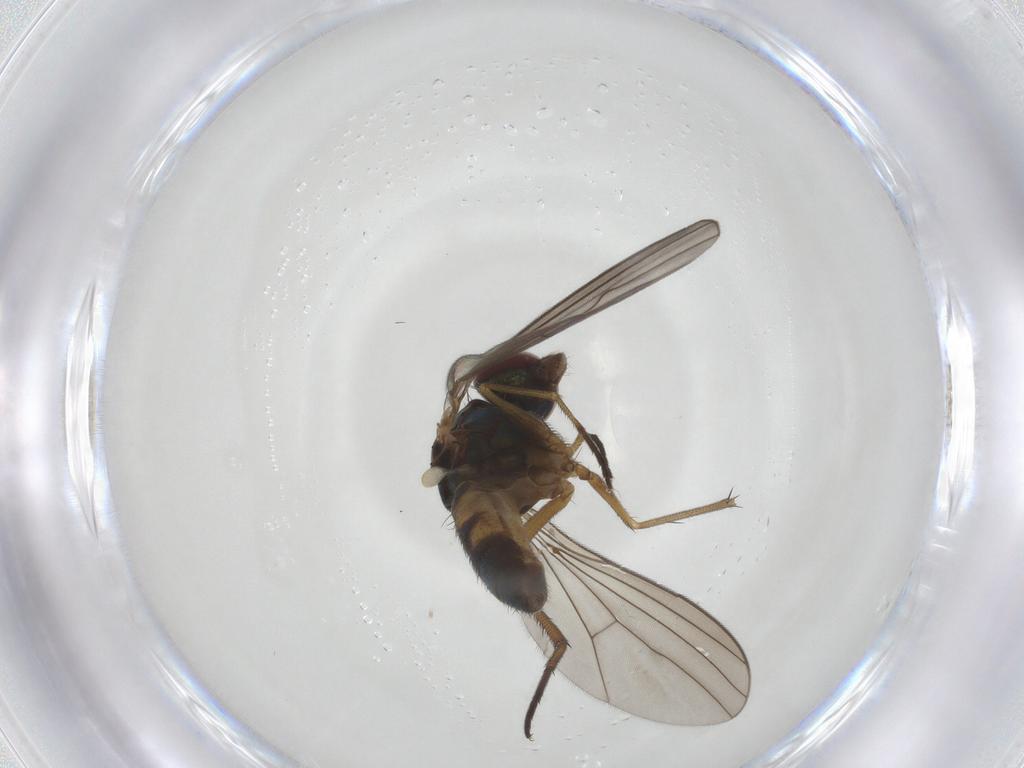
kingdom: Animalia
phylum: Arthropoda
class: Insecta
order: Diptera
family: Dolichopodidae
